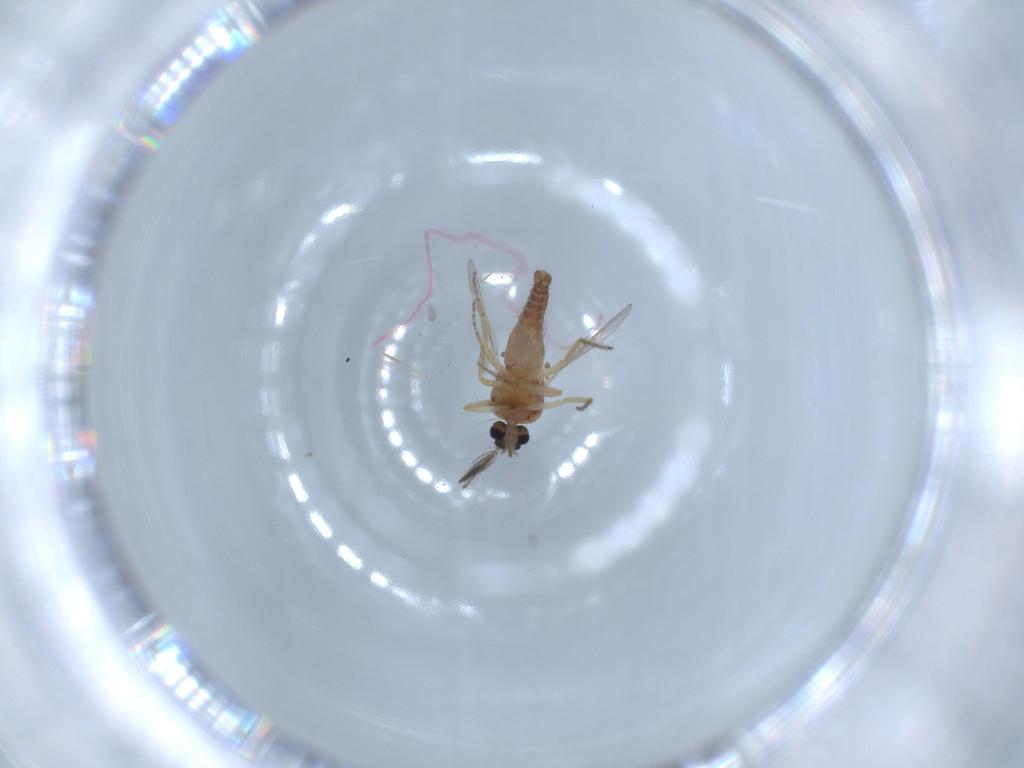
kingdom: Animalia
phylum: Arthropoda
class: Insecta
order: Diptera
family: Ceratopogonidae
